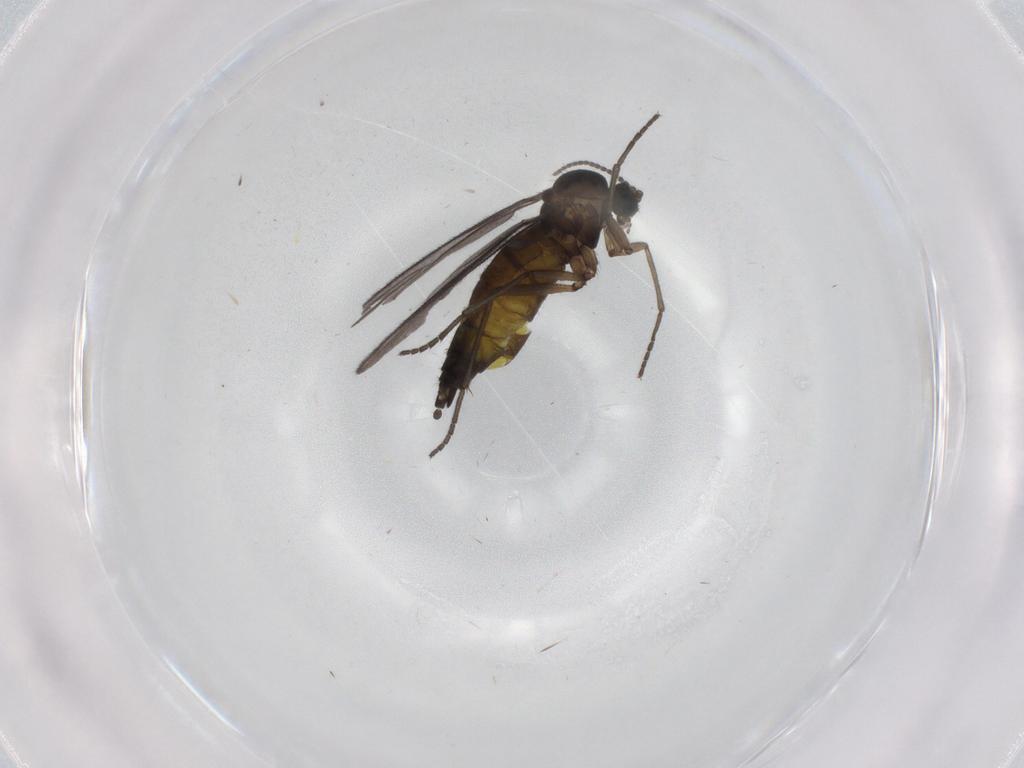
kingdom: Animalia
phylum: Arthropoda
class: Insecta
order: Diptera
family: Sciaridae
